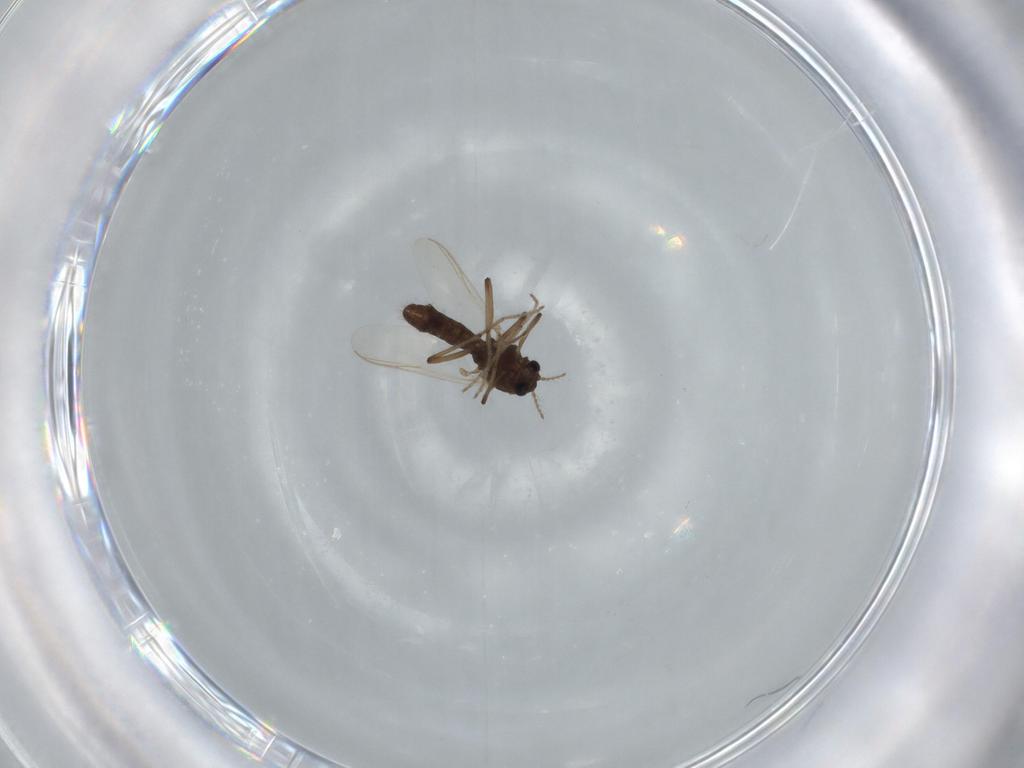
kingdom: Animalia
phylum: Arthropoda
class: Insecta
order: Diptera
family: Chironomidae
